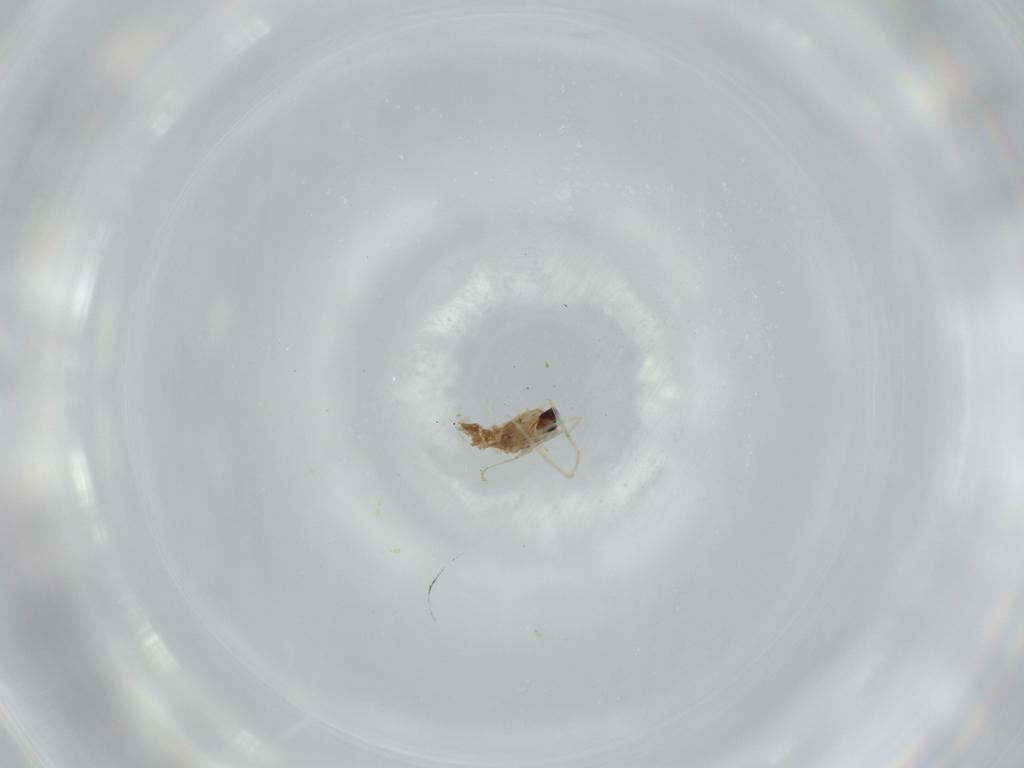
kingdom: Animalia
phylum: Arthropoda
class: Insecta
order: Diptera
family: Cecidomyiidae
